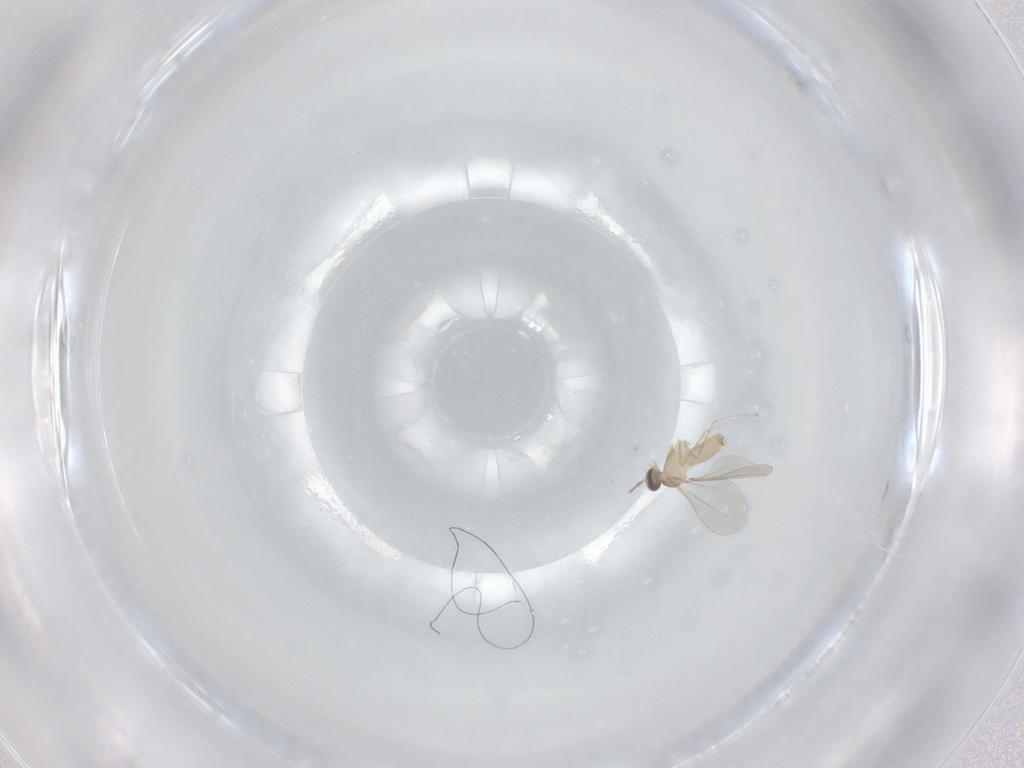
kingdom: Animalia
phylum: Arthropoda
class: Insecta
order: Diptera
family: Cecidomyiidae
